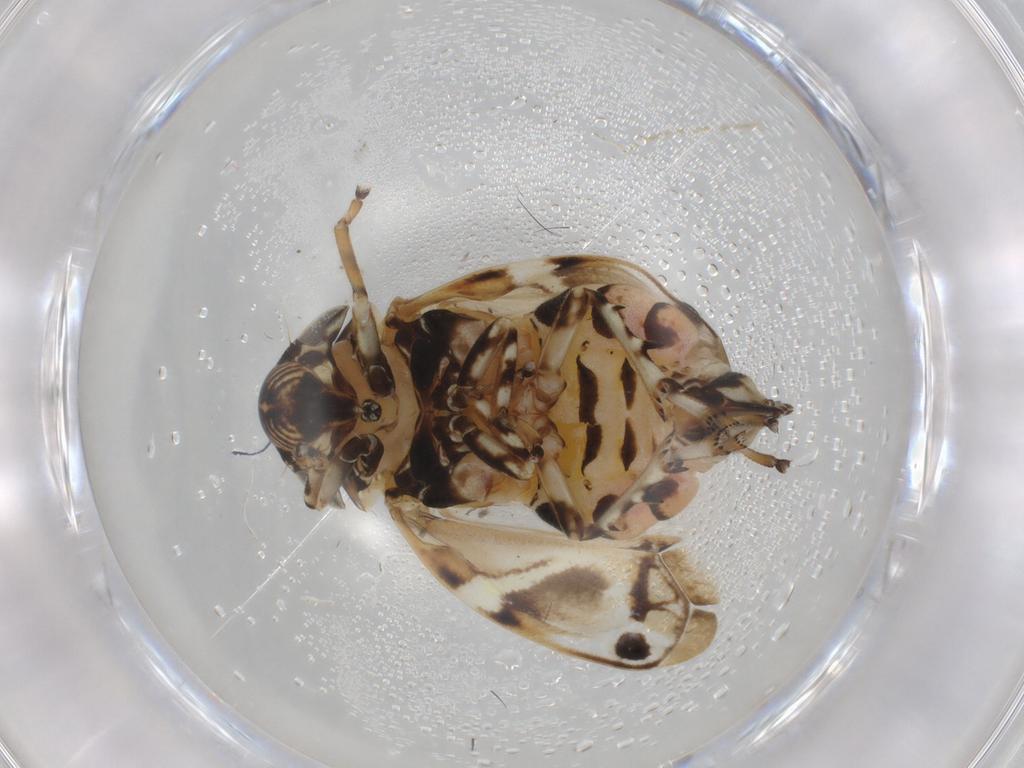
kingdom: Animalia
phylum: Arthropoda
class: Insecta
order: Hemiptera
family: Clastopteridae
